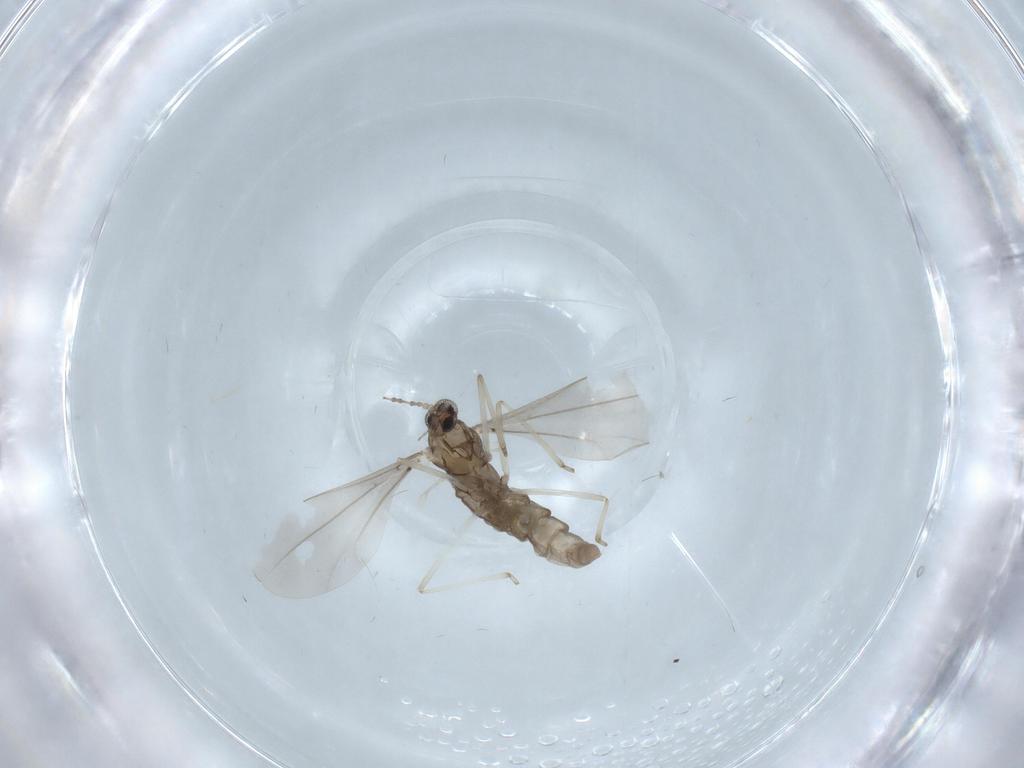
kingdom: Animalia
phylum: Arthropoda
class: Insecta
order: Diptera
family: Cecidomyiidae
